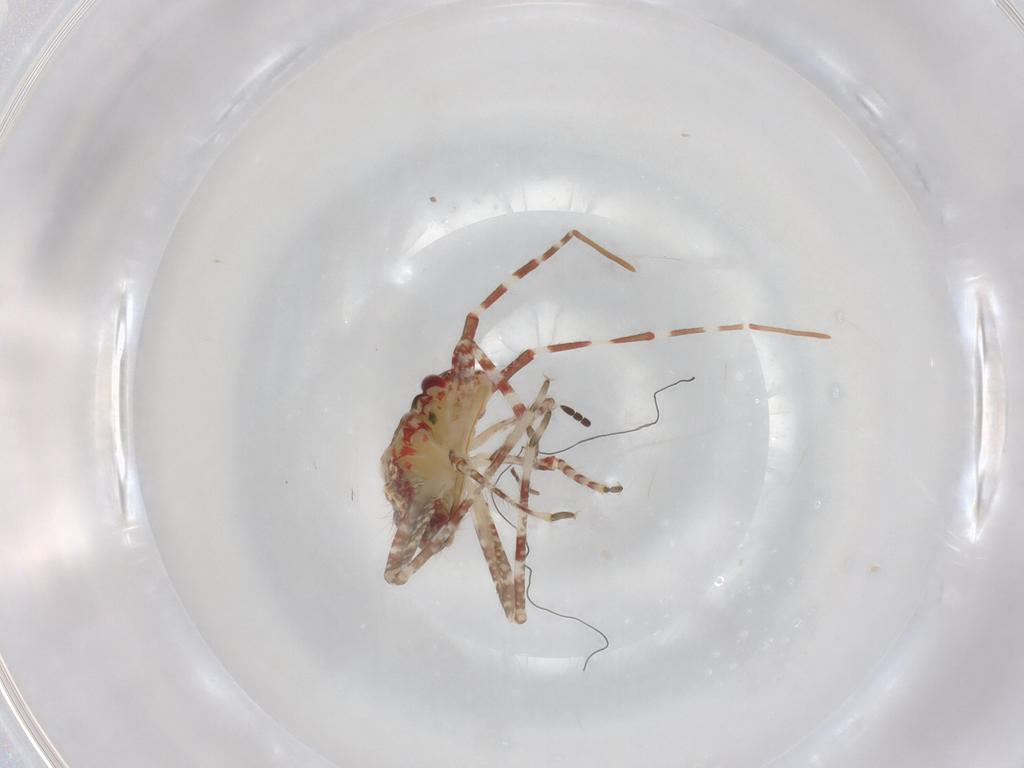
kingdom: Animalia
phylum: Arthropoda
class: Insecta
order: Hemiptera
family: Miridae
